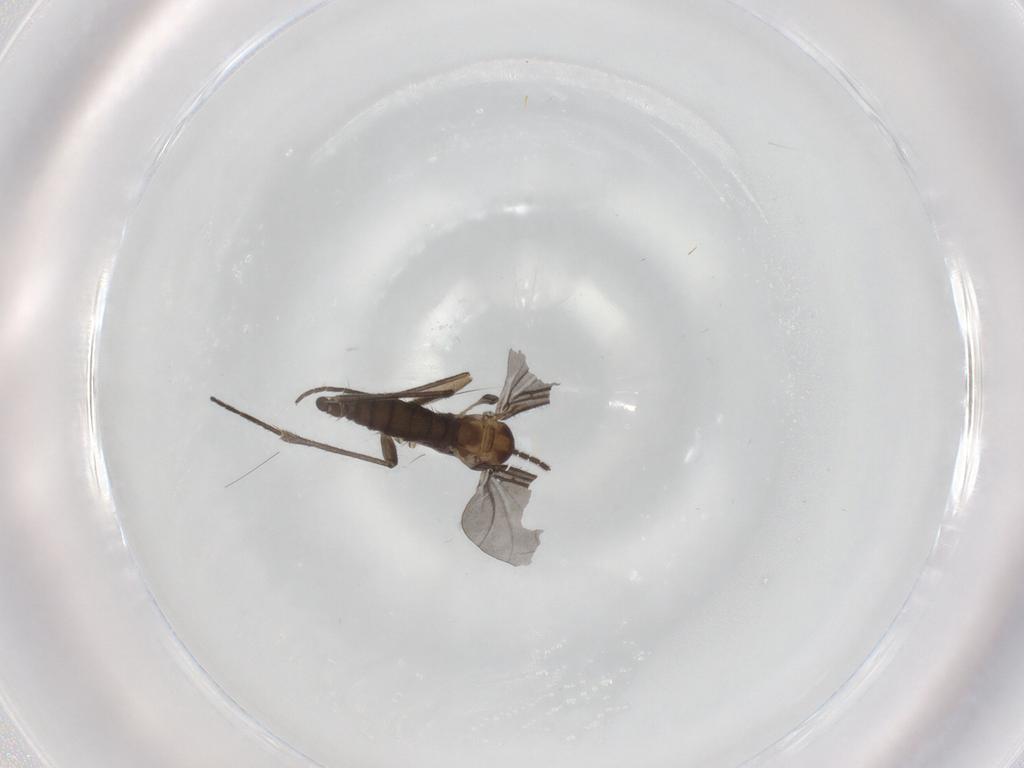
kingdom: Animalia
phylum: Arthropoda
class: Insecta
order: Diptera
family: Sciaridae
